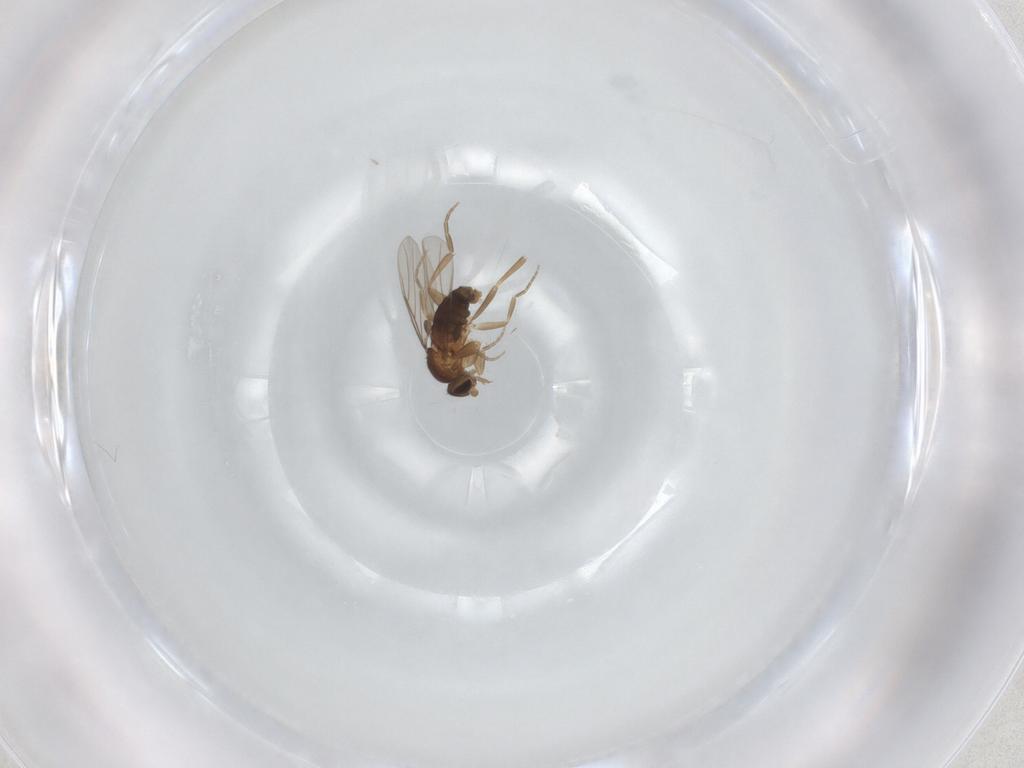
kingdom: Animalia
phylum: Arthropoda
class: Insecta
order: Diptera
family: Phoridae
